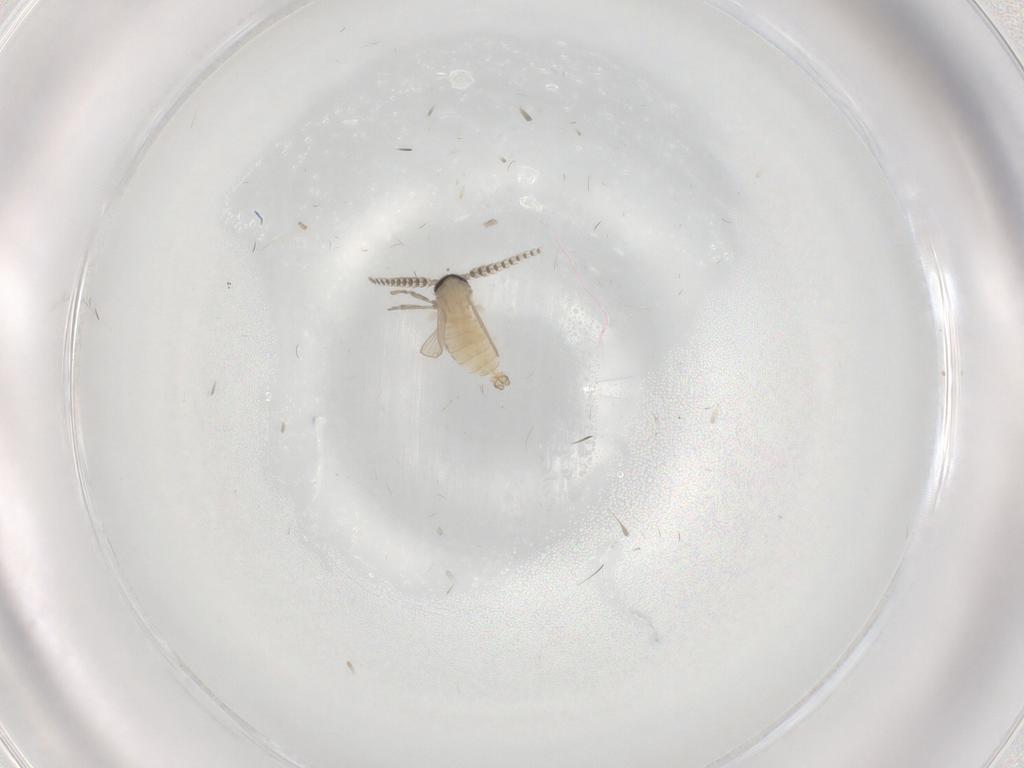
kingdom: Animalia
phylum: Arthropoda
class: Insecta
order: Diptera
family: Psychodidae
